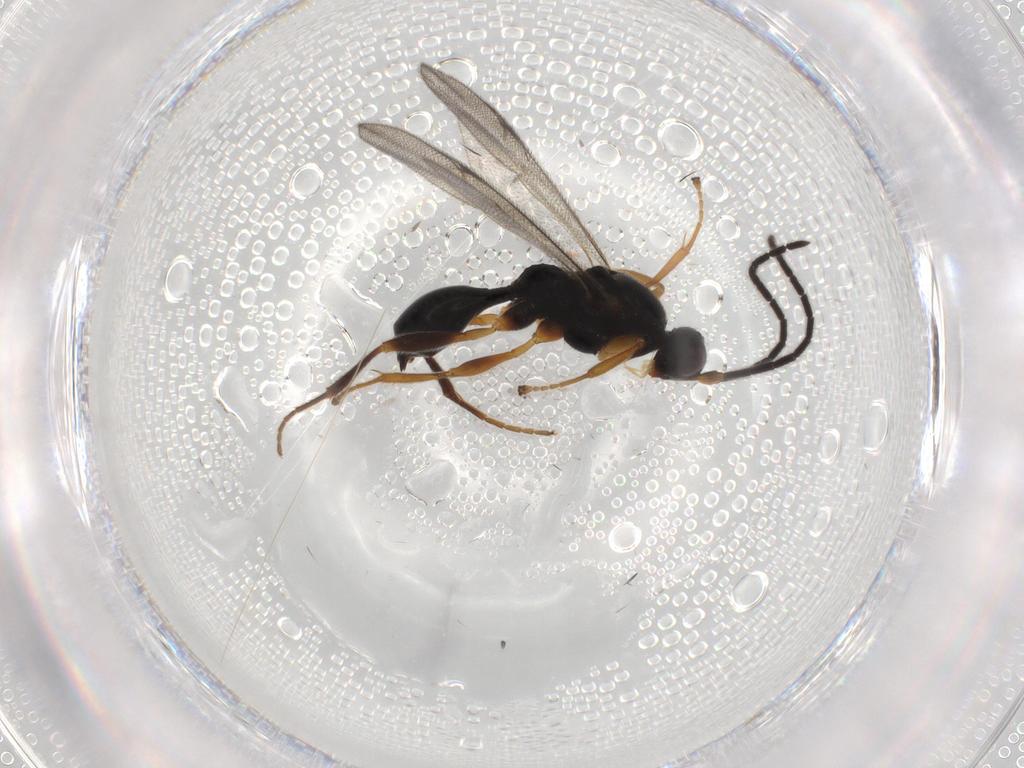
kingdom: Animalia
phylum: Arthropoda
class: Insecta
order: Hymenoptera
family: Proctotrupidae
